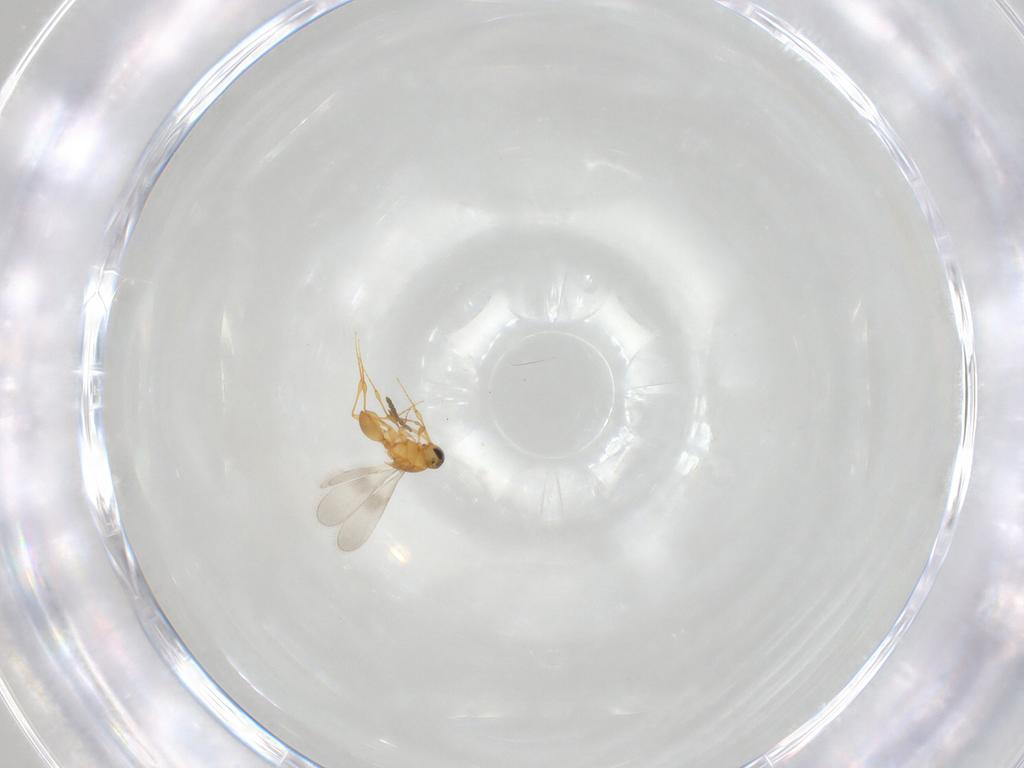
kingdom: Animalia
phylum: Arthropoda
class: Insecta
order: Hymenoptera
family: Platygastridae
